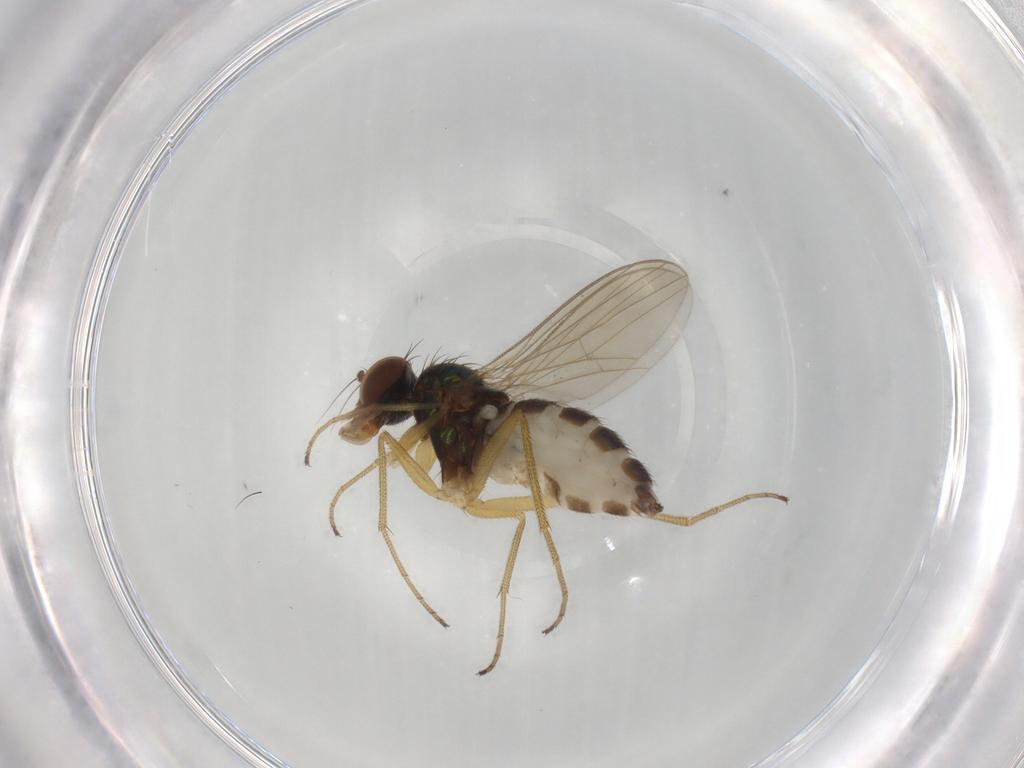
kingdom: Animalia
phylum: Arthropoda
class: Insecta
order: Diptera
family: Dolichopodidae
